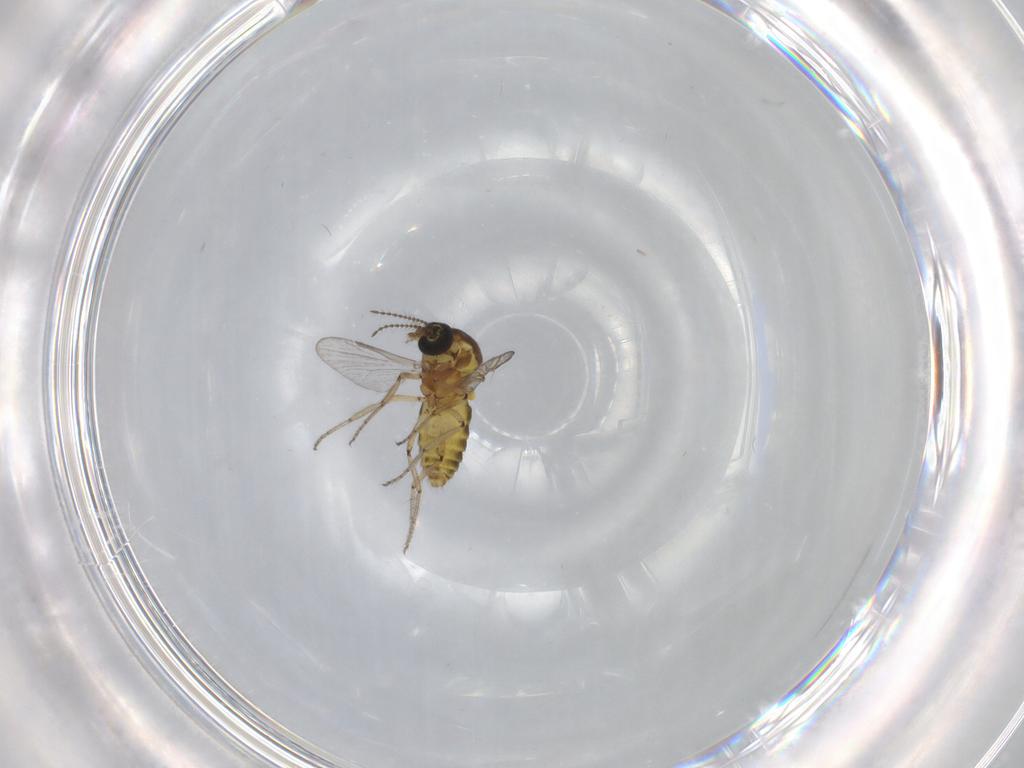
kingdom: Animalia
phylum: Arthropoda
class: Insecta
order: Diptera
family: Ceratopogonidae
